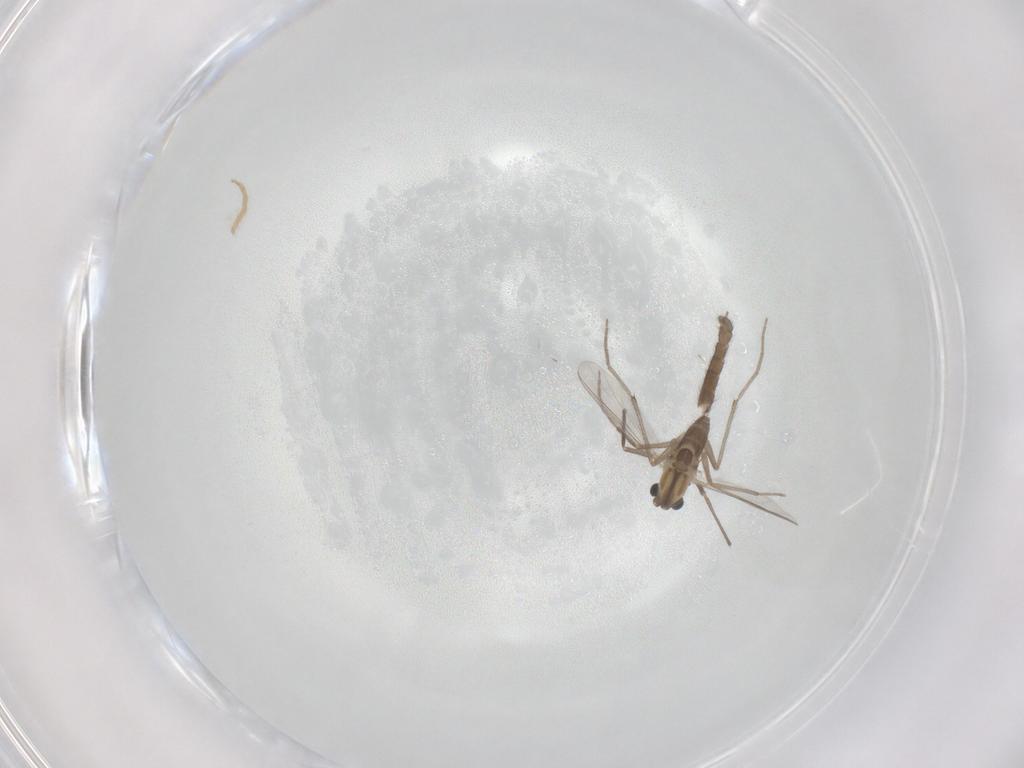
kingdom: Animalia
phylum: Arthropoda
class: Insecta
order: Diptera
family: Chironomidae
